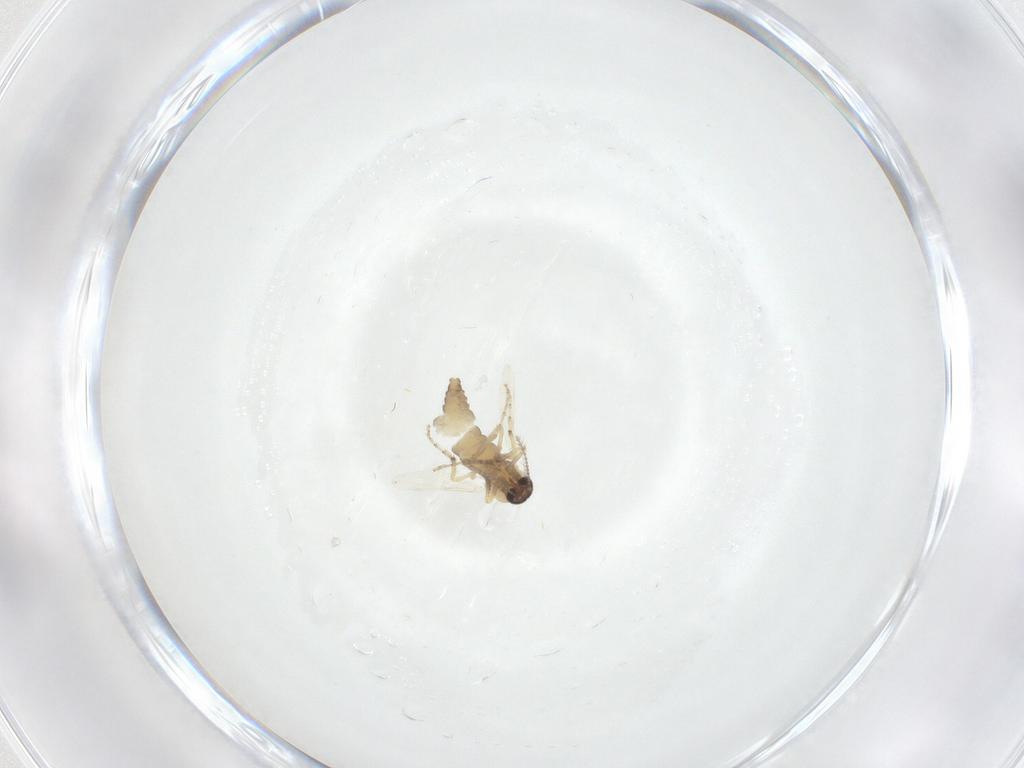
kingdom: Animalia
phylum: Arthropoda
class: Insecta
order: Diptera
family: Ceratopogonidae
